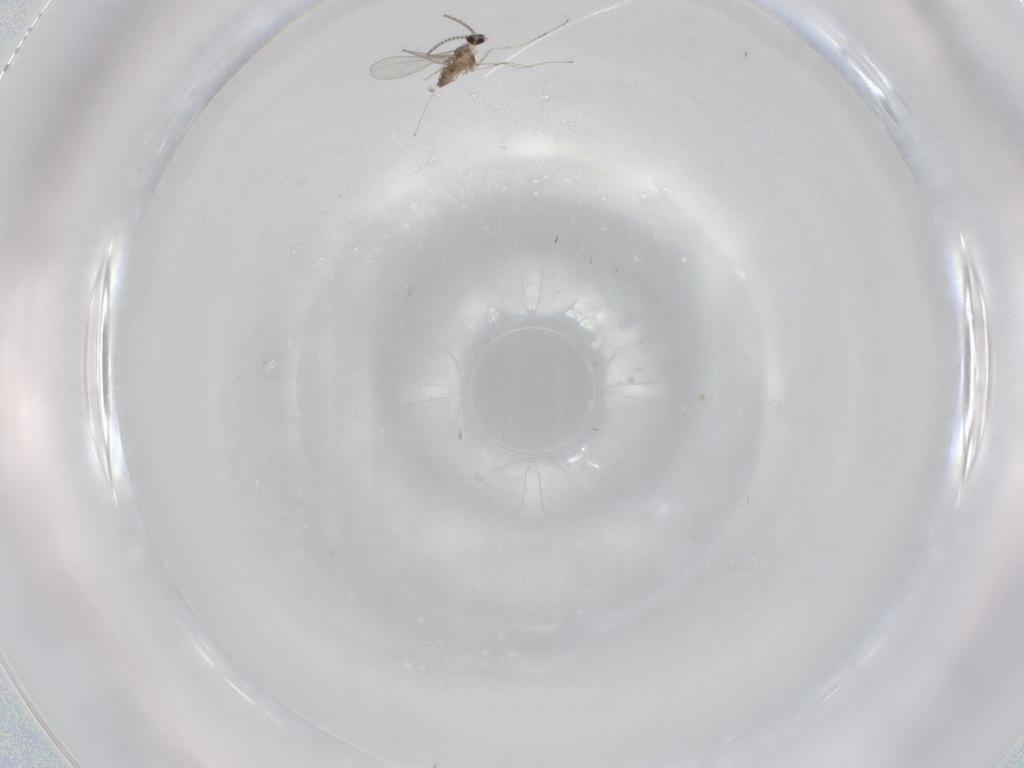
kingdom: Animalia
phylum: Arthropoda
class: Insecta
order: Diptera
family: Cecidomyiidae
